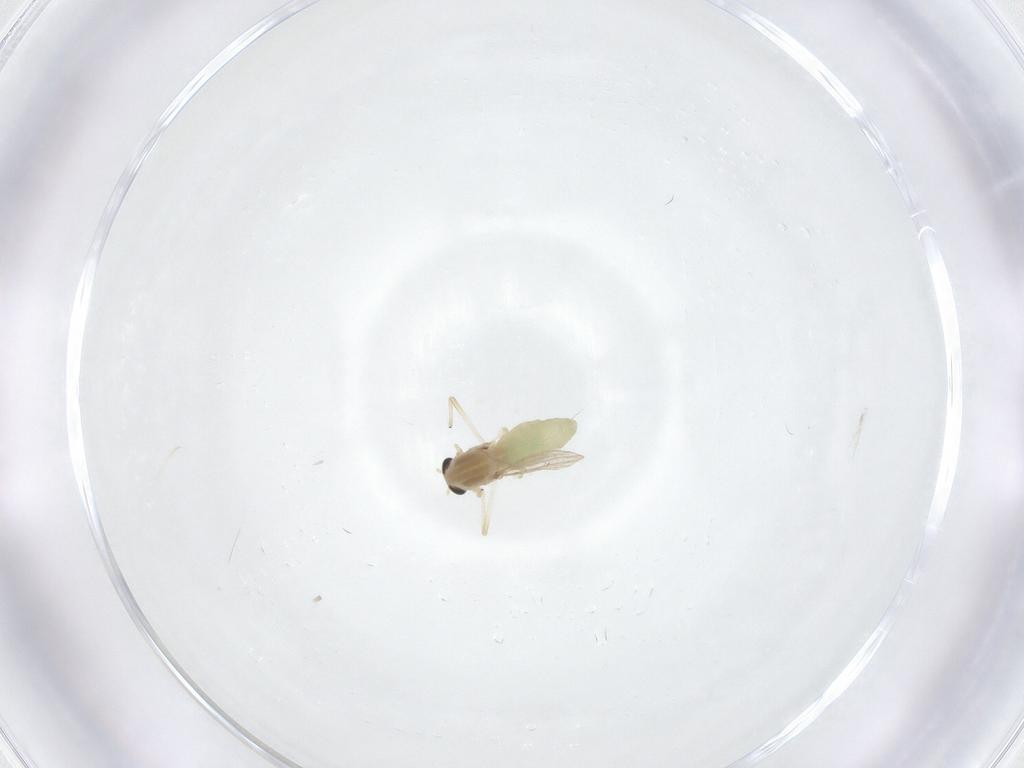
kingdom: Animalia
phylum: Arthropoda
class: Insecta
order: Diptera
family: Chironomidae
